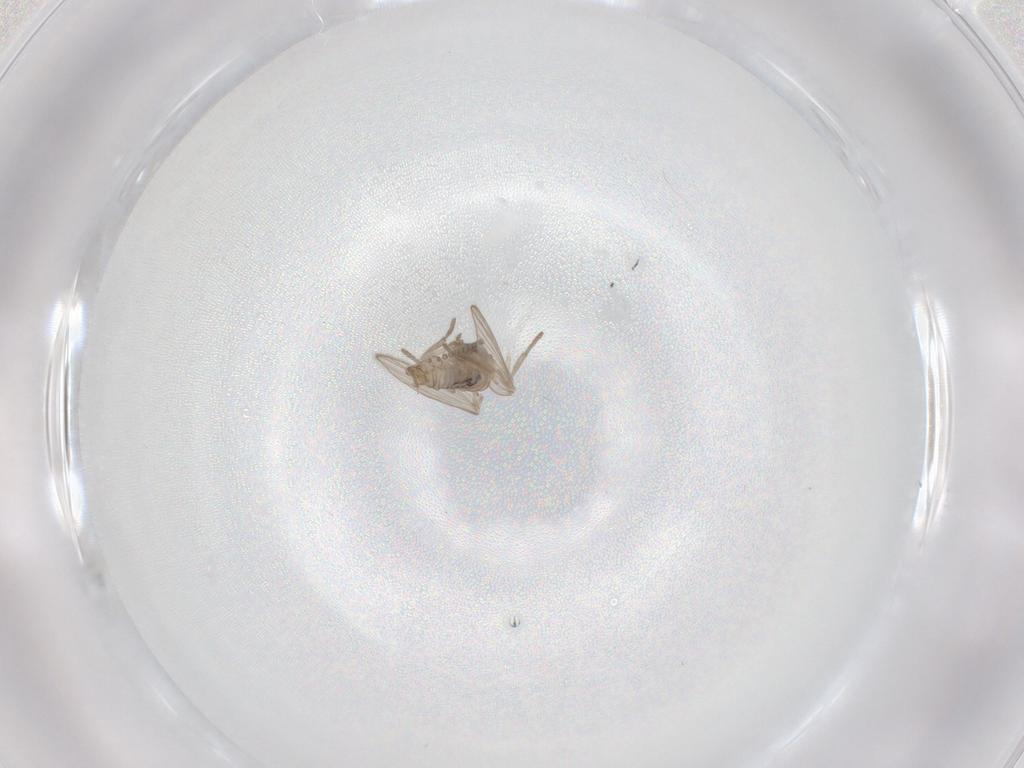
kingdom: Animalia
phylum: Arthropoda
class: Insecta
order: Diptera
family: Psychodidae
